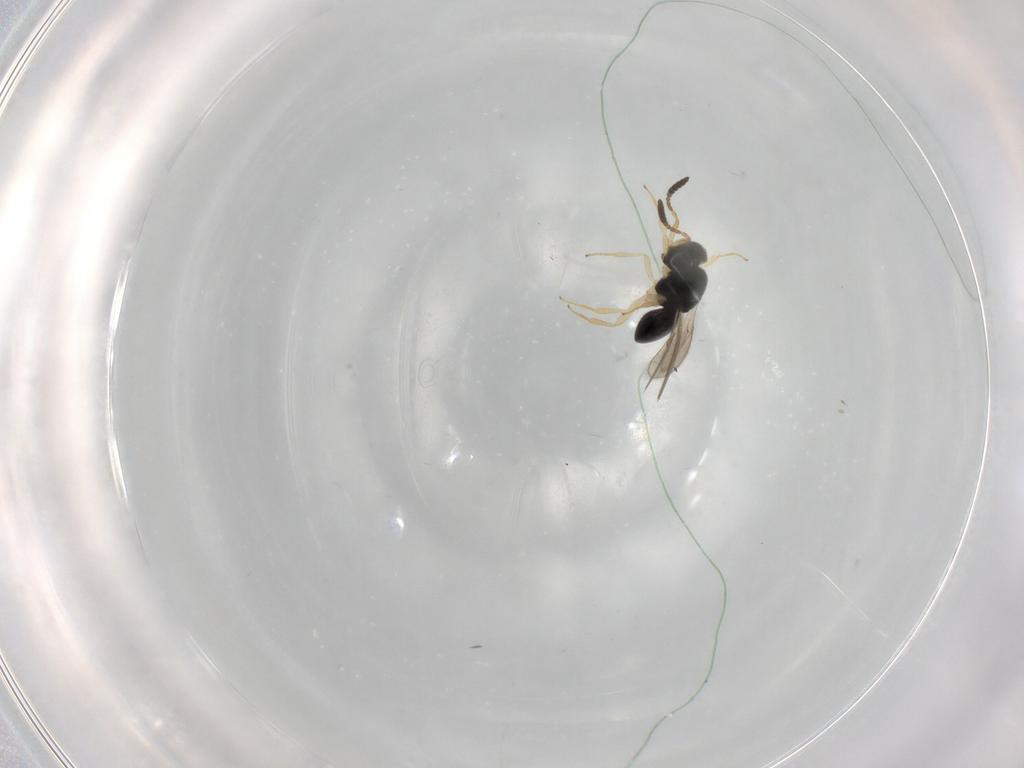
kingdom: Animalia
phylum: Arthropoda
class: Insecta
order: Hymenoptera
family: Scelionidae
